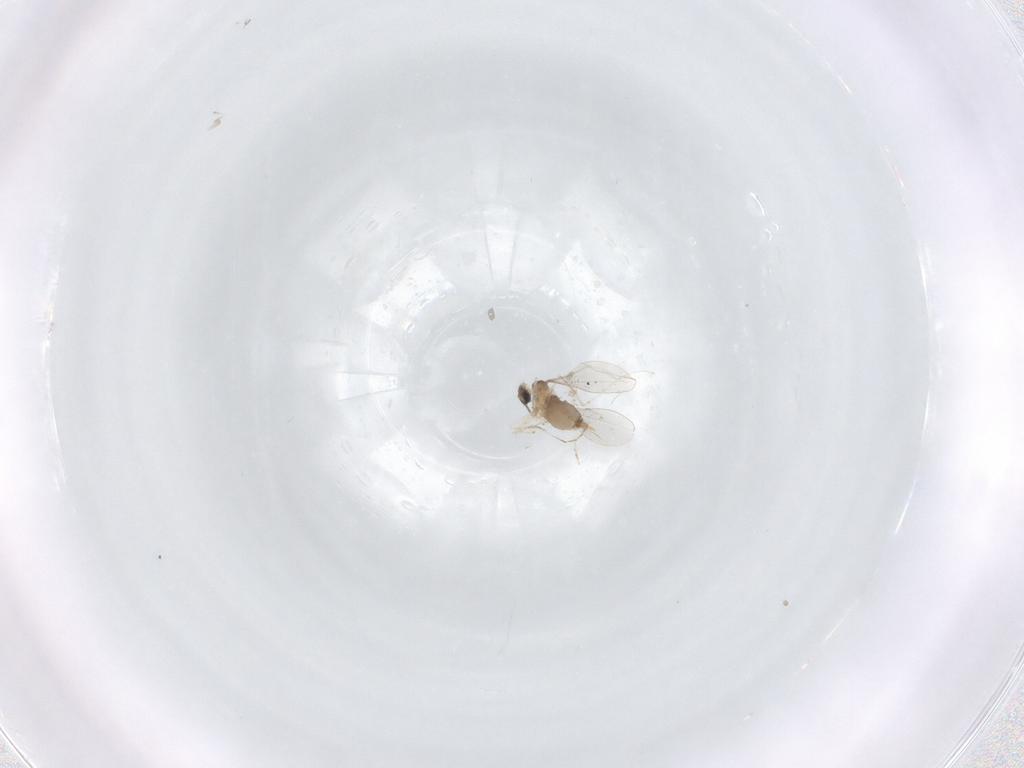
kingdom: Animalia
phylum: Arthropoda
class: Insecta
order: Diptera
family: Ceratopogonidae
